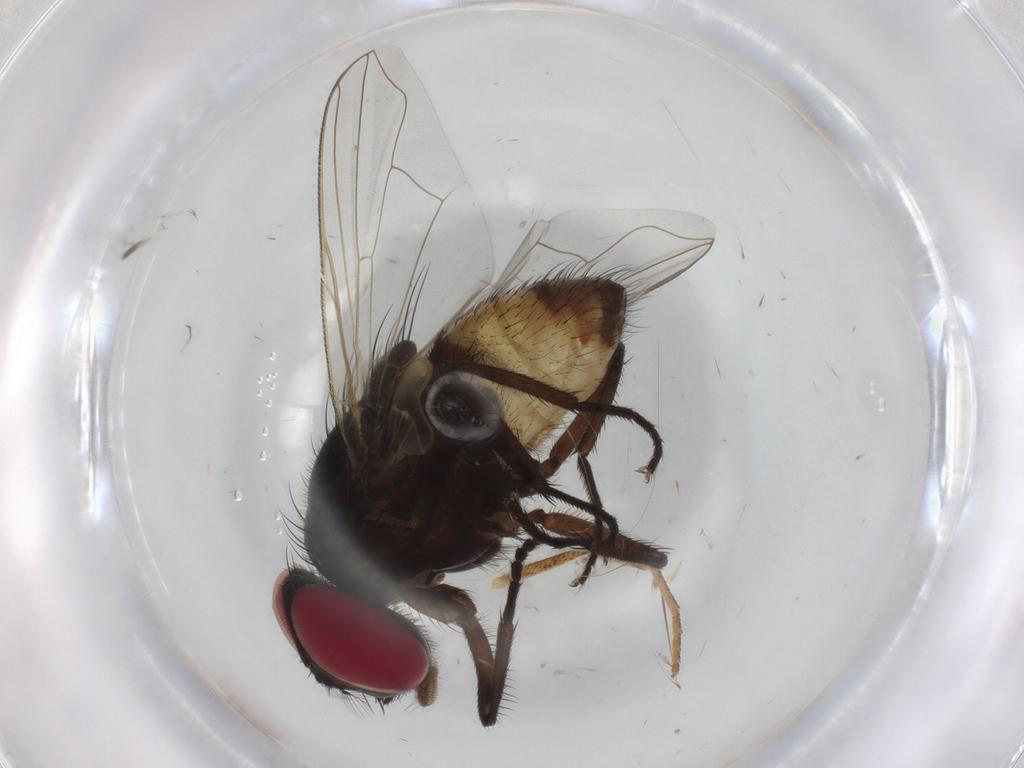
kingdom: Animalia
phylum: Arthropoda
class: Insecta
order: Diptera
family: Muscidae
